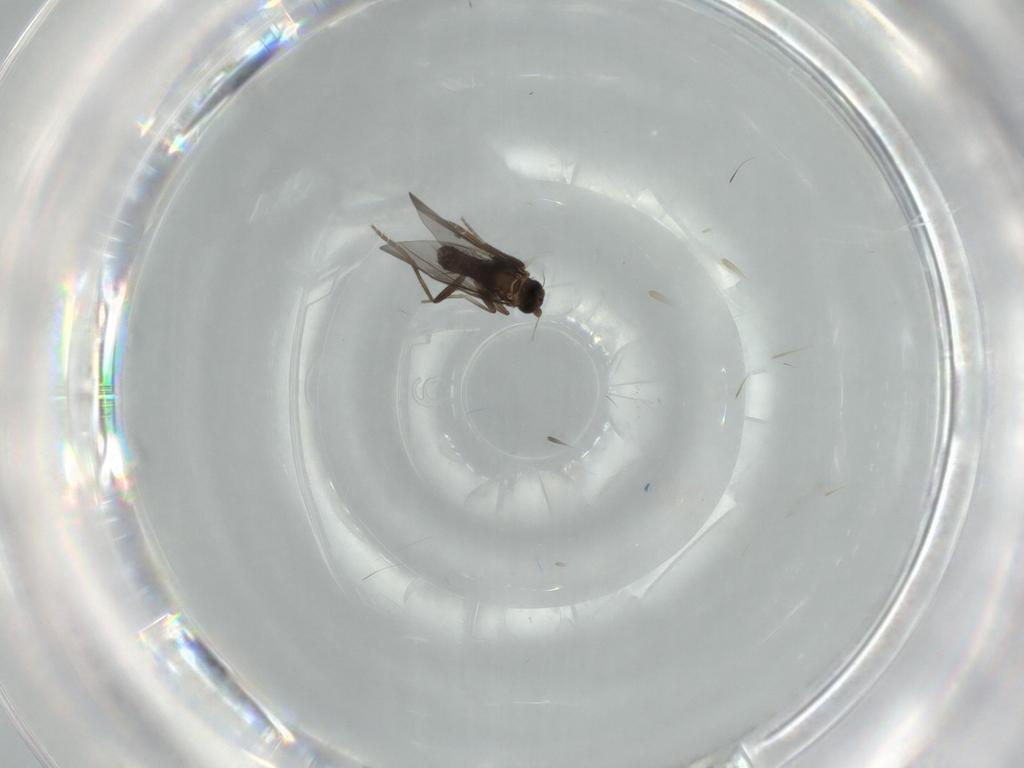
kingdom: Animalia
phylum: Arthropoda
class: Insecta
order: Diptera
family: Phoridae
